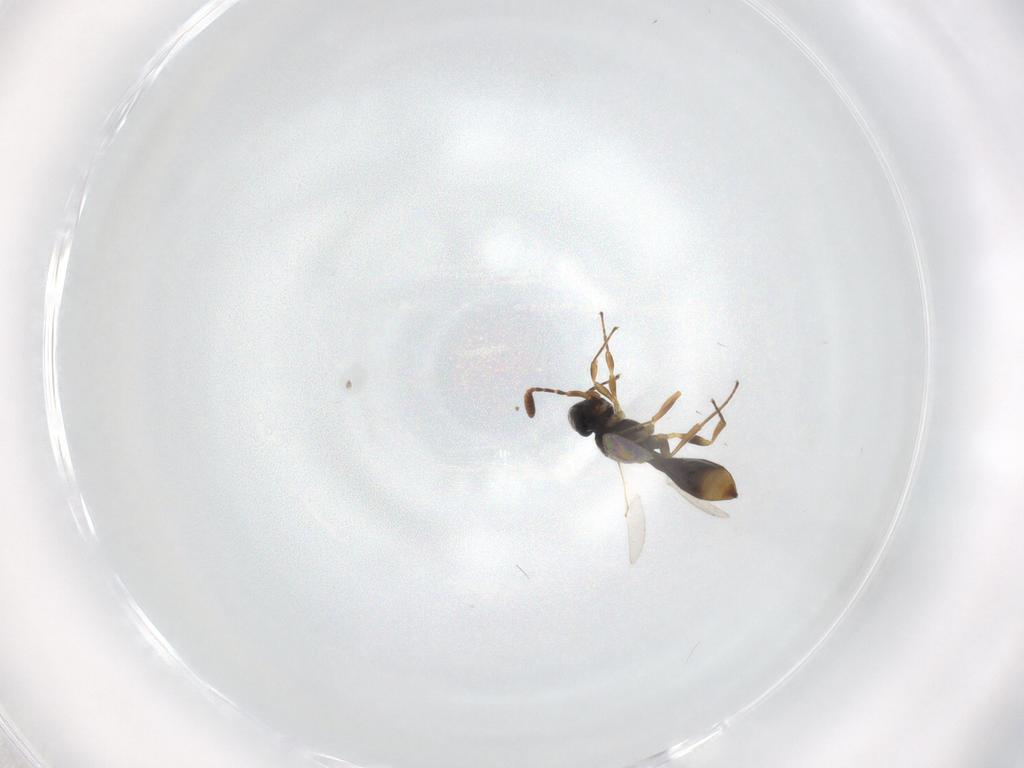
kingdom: Animalia
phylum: Arthropoda
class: Insecta
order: Hymenoptera
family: Scelionidae
